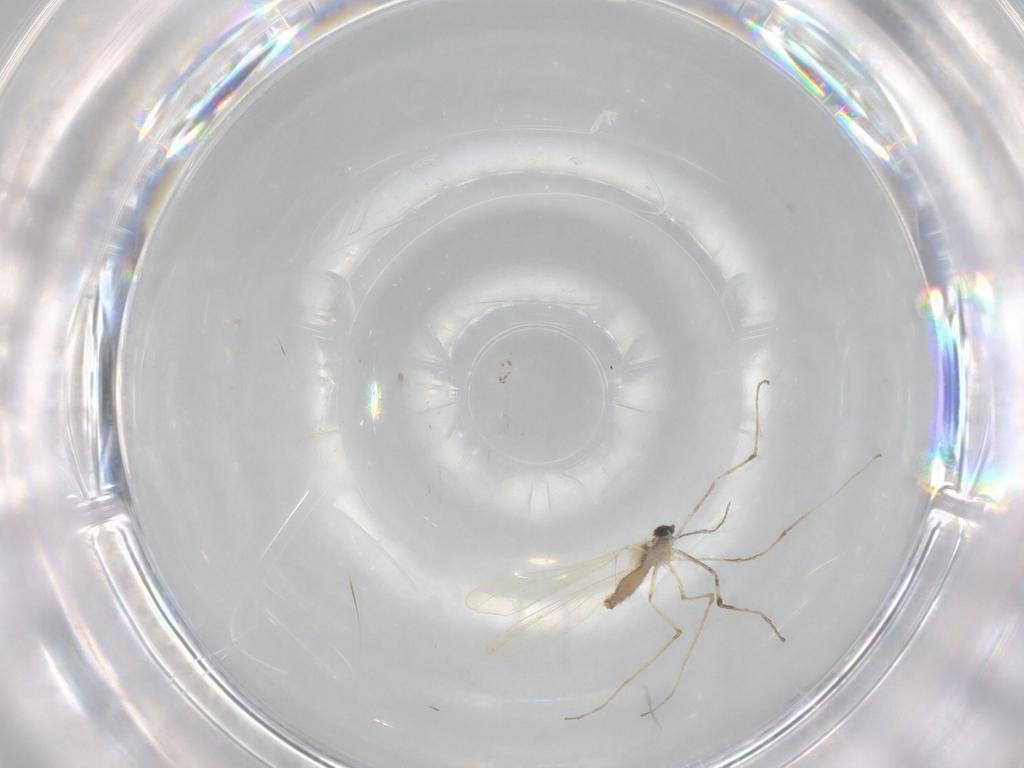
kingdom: Animalia
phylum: Arthropoda
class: Insecta
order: Diptera
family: Cecidomyiidae
